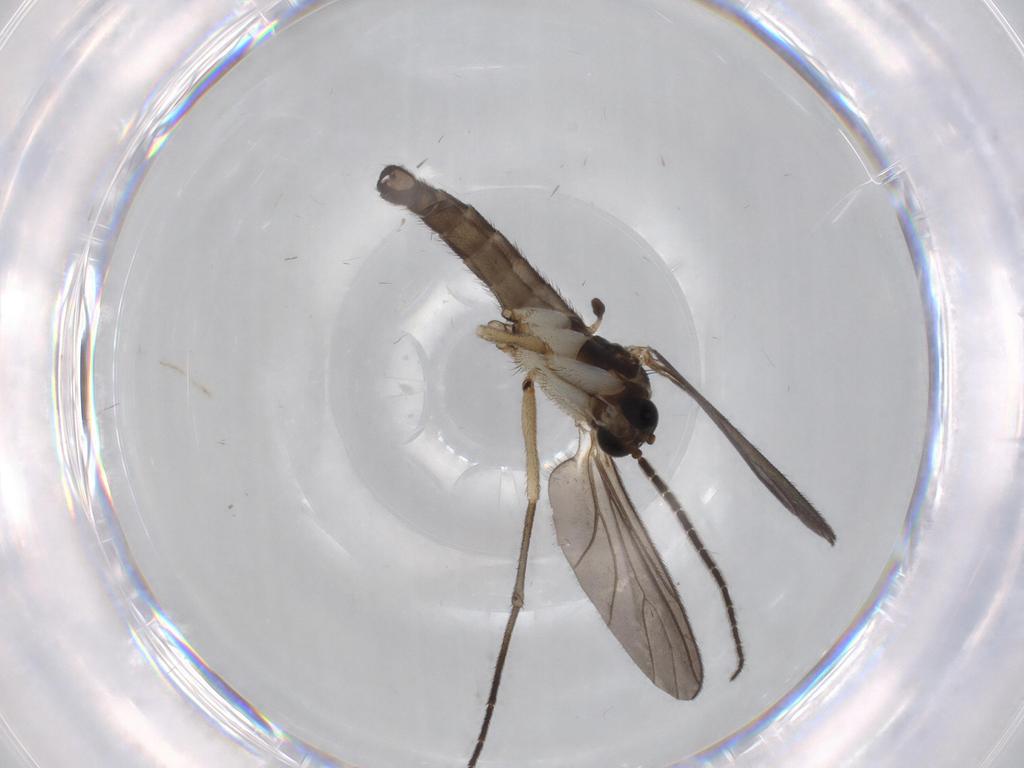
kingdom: Animalia
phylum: Arthropoda
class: Insecta
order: Diptera
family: Sciaridae
